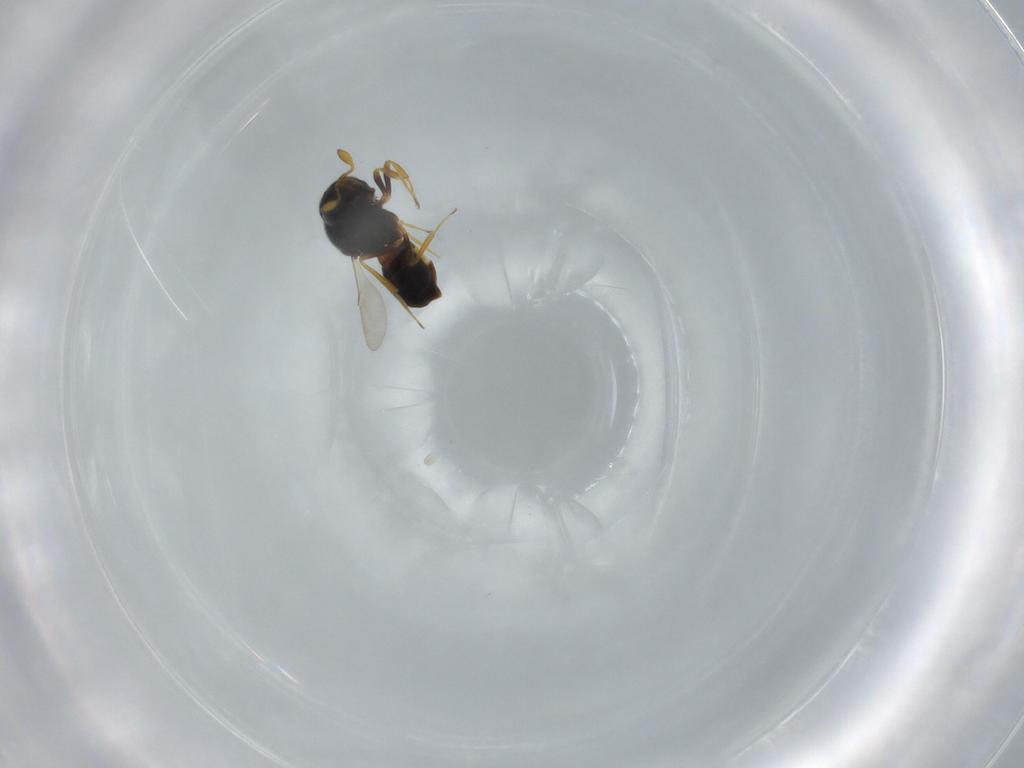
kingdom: Animalia
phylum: Arthropoda
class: Insecta
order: Hymenoptera
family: Scelionidae
